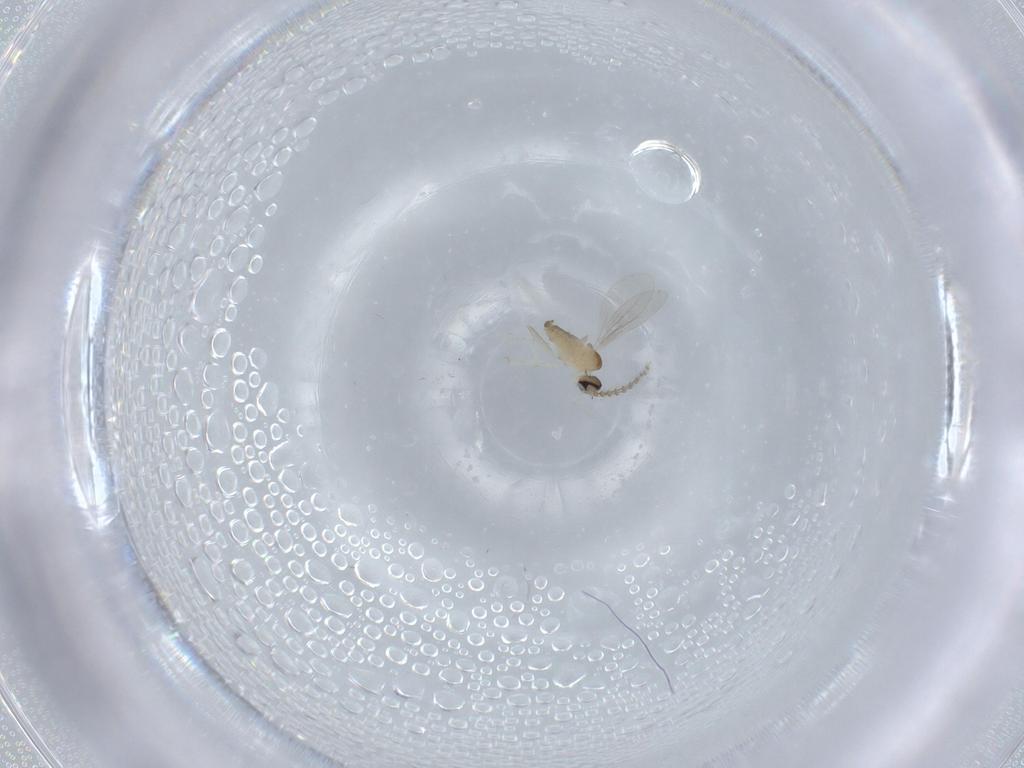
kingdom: Animalia
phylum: Arthropoda
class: Insecta
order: Diptera
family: Cecidomyiidae
